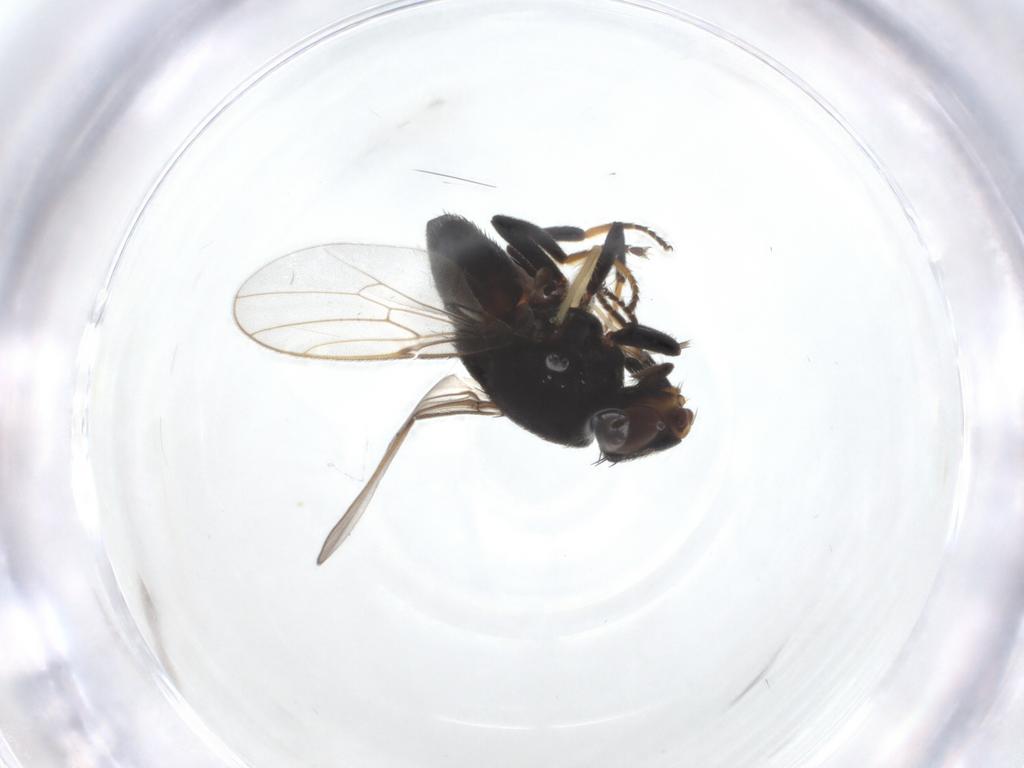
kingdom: Animalia
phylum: Arthropoda
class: Insecta
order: Diptera
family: Chloropidae
